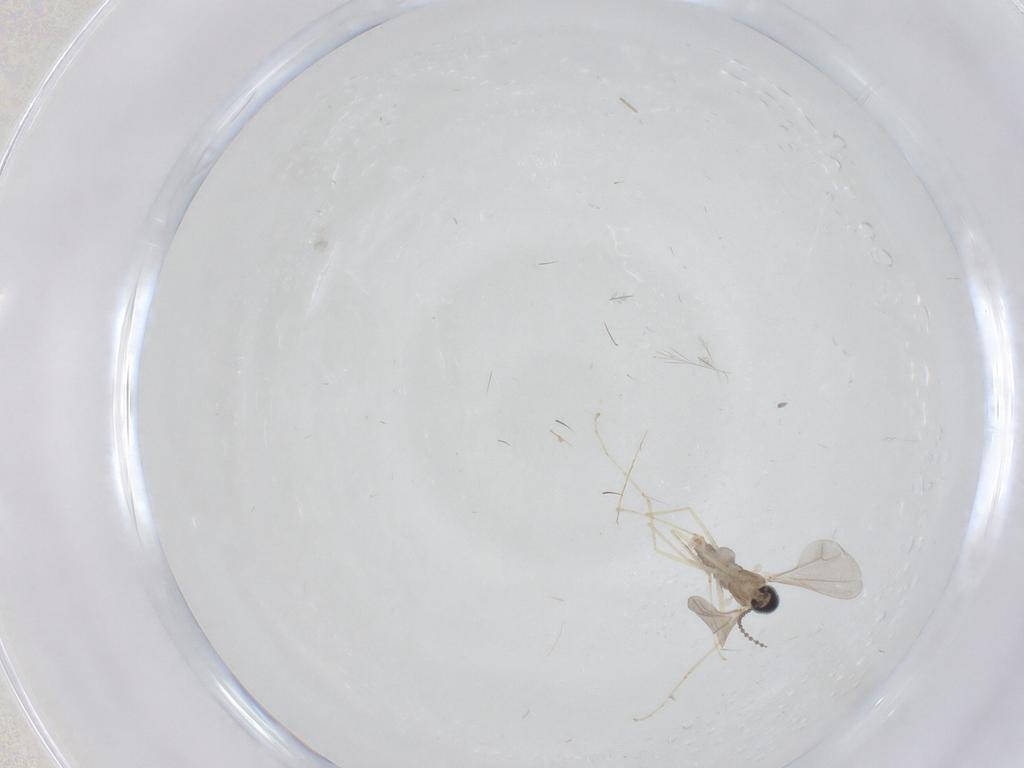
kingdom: Animalia
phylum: Arthropoda
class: Insecta
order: Diptera
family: Chironomidae
